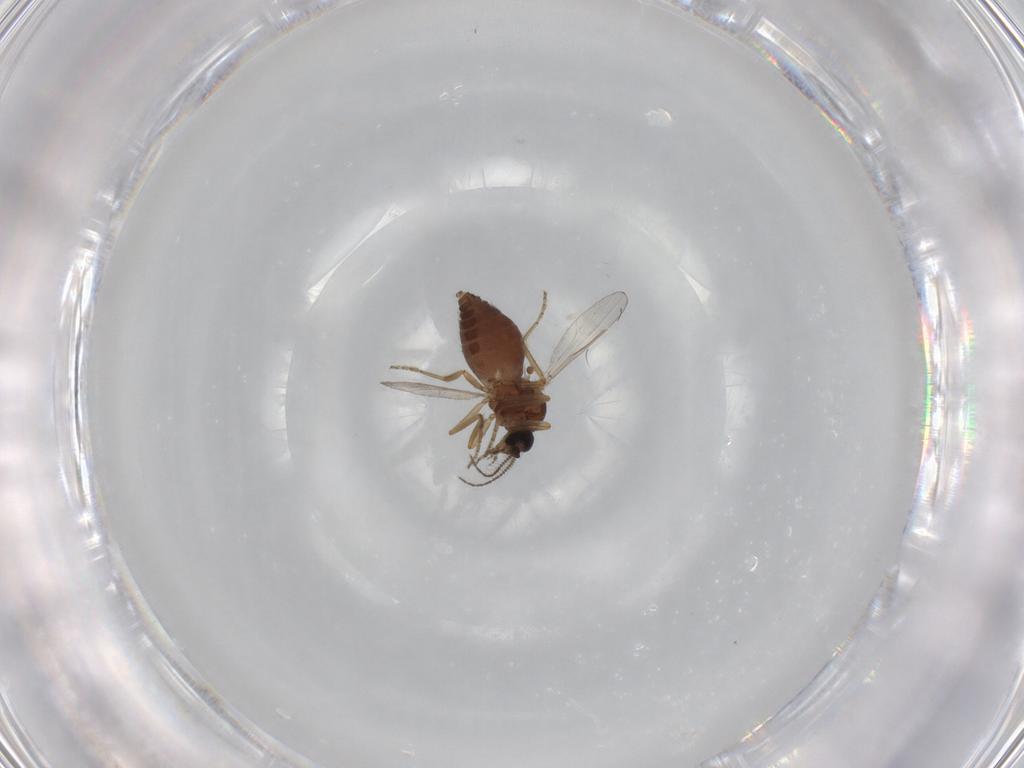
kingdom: Animalia
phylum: Arthropoda
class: Insecta
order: Diptera
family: Ceratopogonidae
